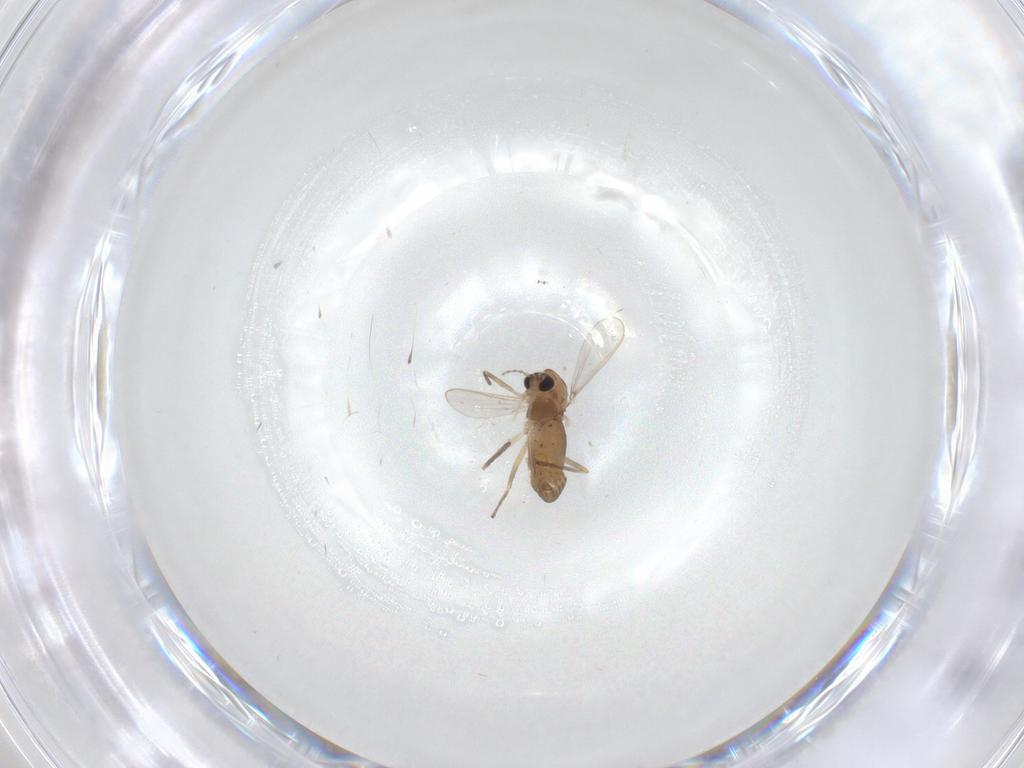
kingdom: Animalia
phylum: Arthropoda
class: Insecta
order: Diptera
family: Chironomidae
